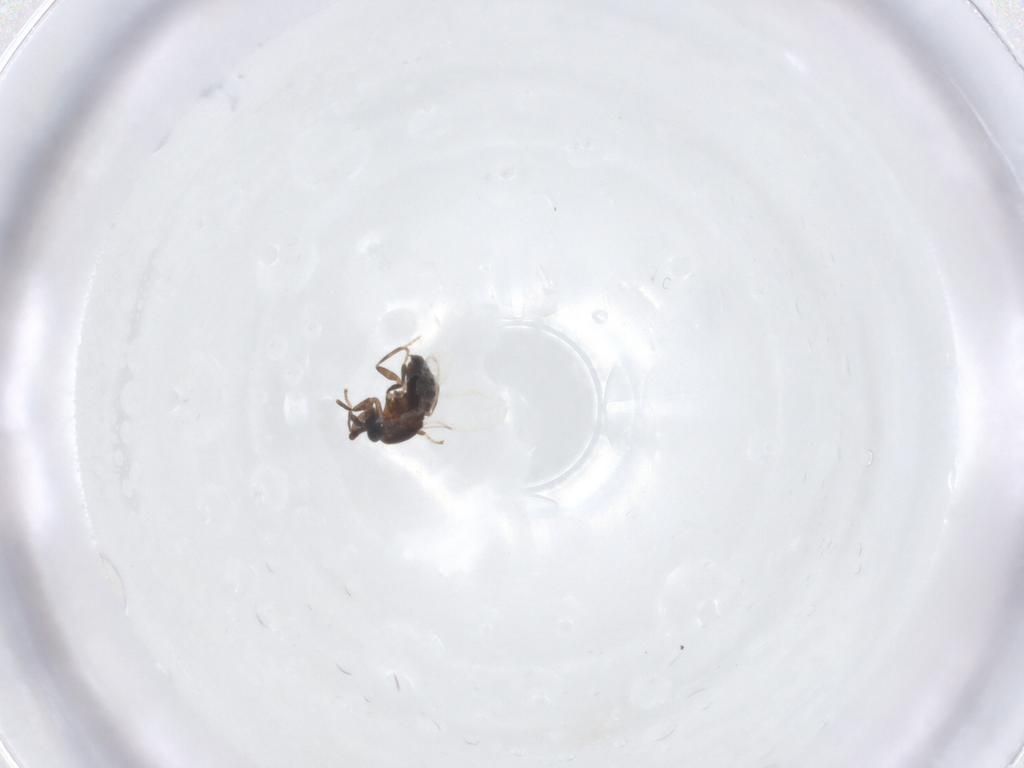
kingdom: Animalia
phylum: Arthropoda
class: Insecta
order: Diptera
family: Scatopsidae
